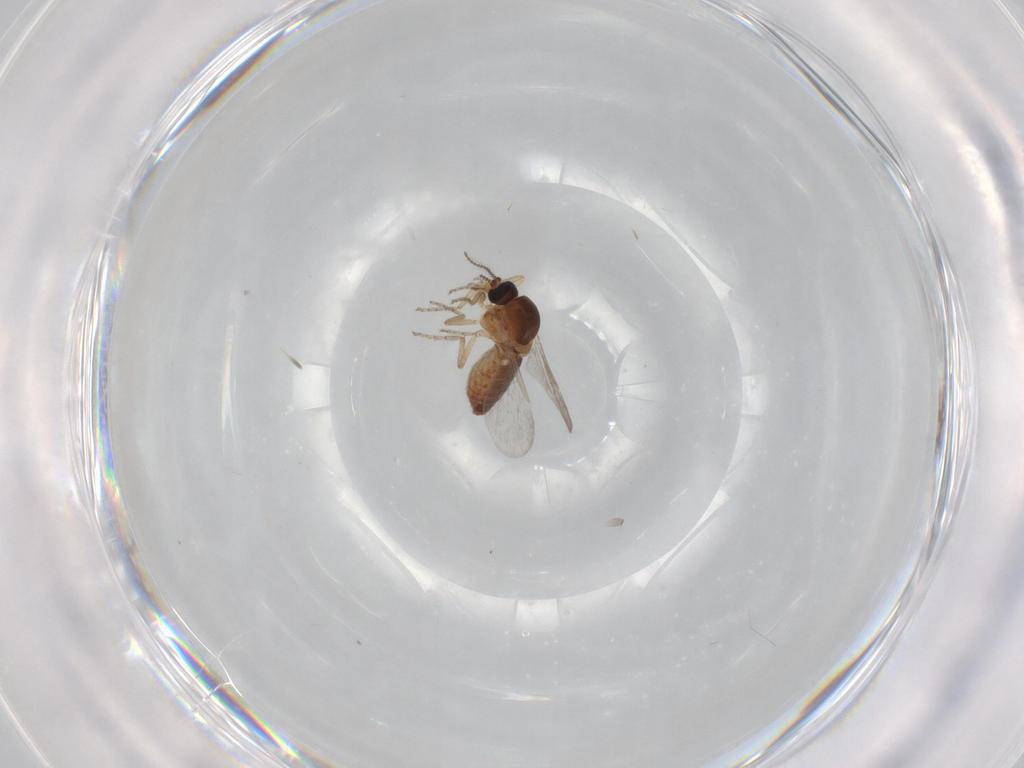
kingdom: Animalia
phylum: Arthropoda
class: Insecta
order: Diptera
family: Ceratopogonidae
